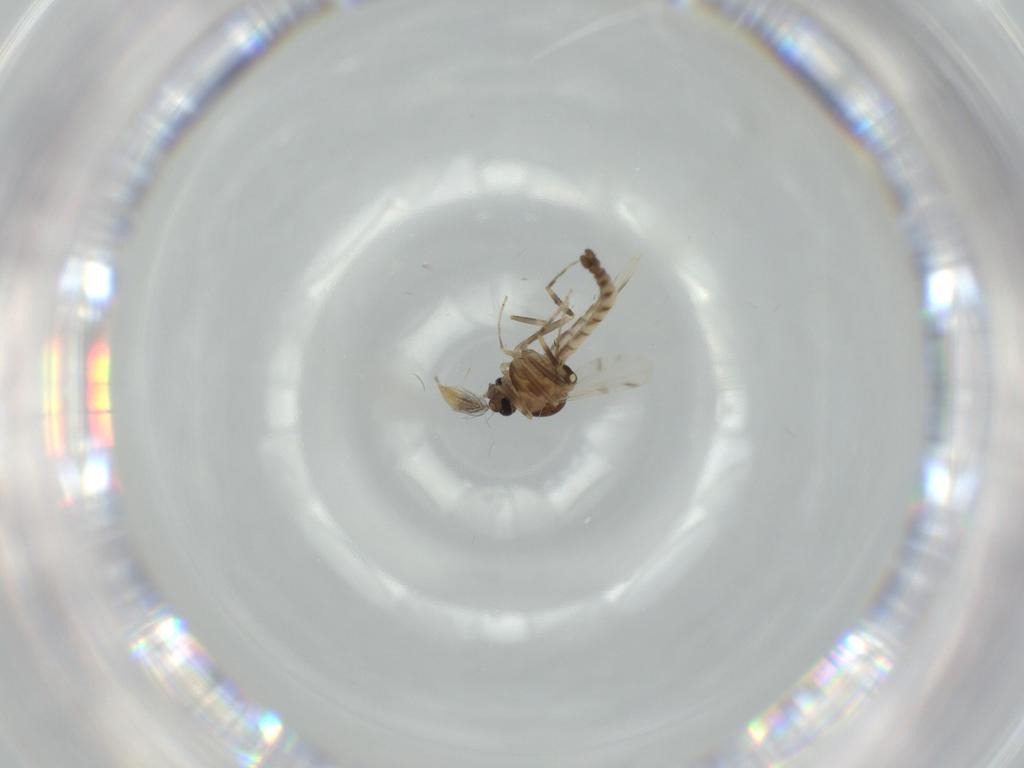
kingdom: Animalia
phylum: Arthropoda
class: Insecta
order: Diptera
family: Ceratopogonidae
